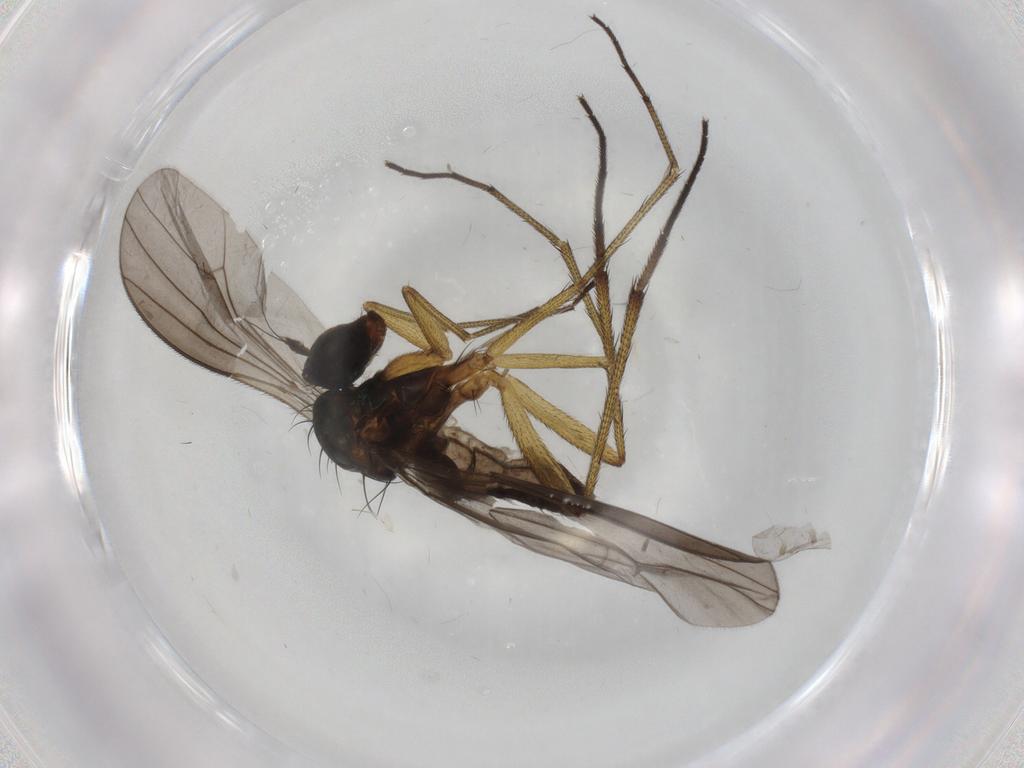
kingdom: Animalia
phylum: Arthropoda
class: Insecta
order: Diptera
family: Dolichopodidae
